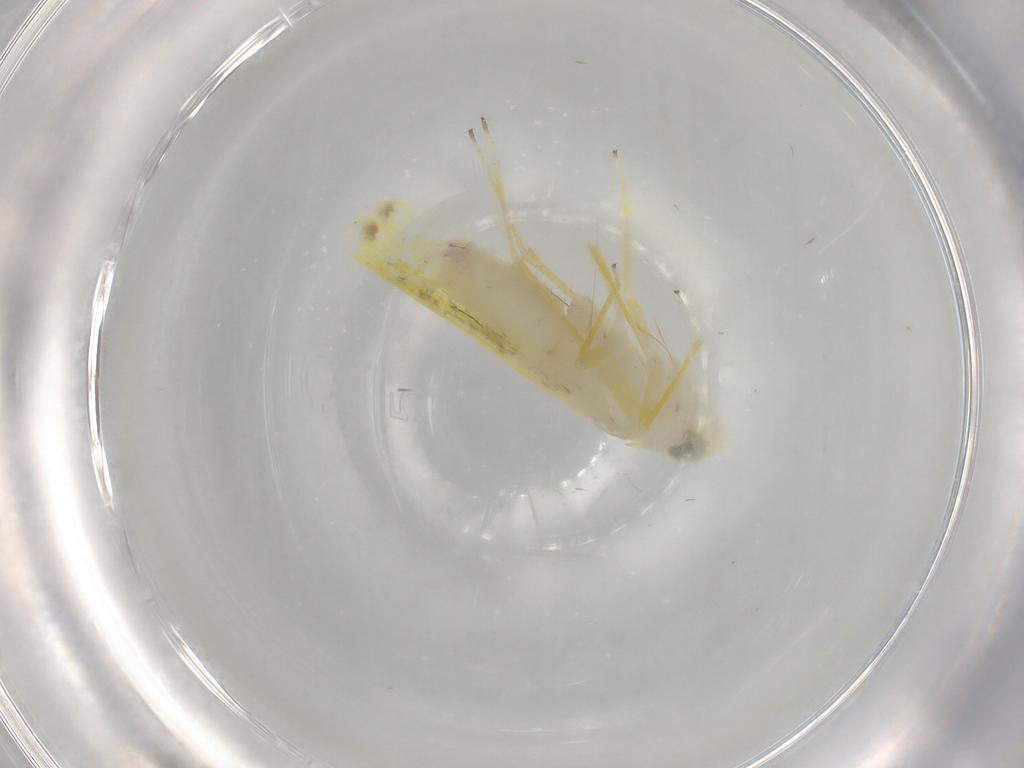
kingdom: Animalia
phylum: Arthropoda
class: Insecta
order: Hemiptera
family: Cicadellidae
